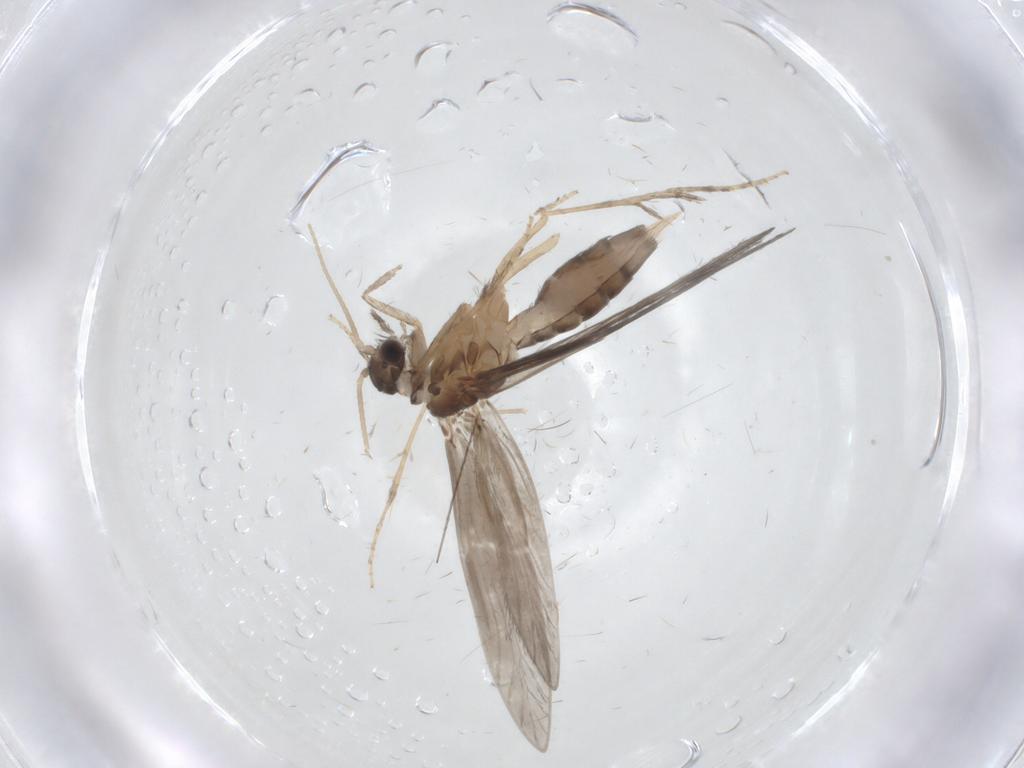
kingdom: Animalia
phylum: Arthropoda
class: Insecta
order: Trichoptera
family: Hydroptilidae
